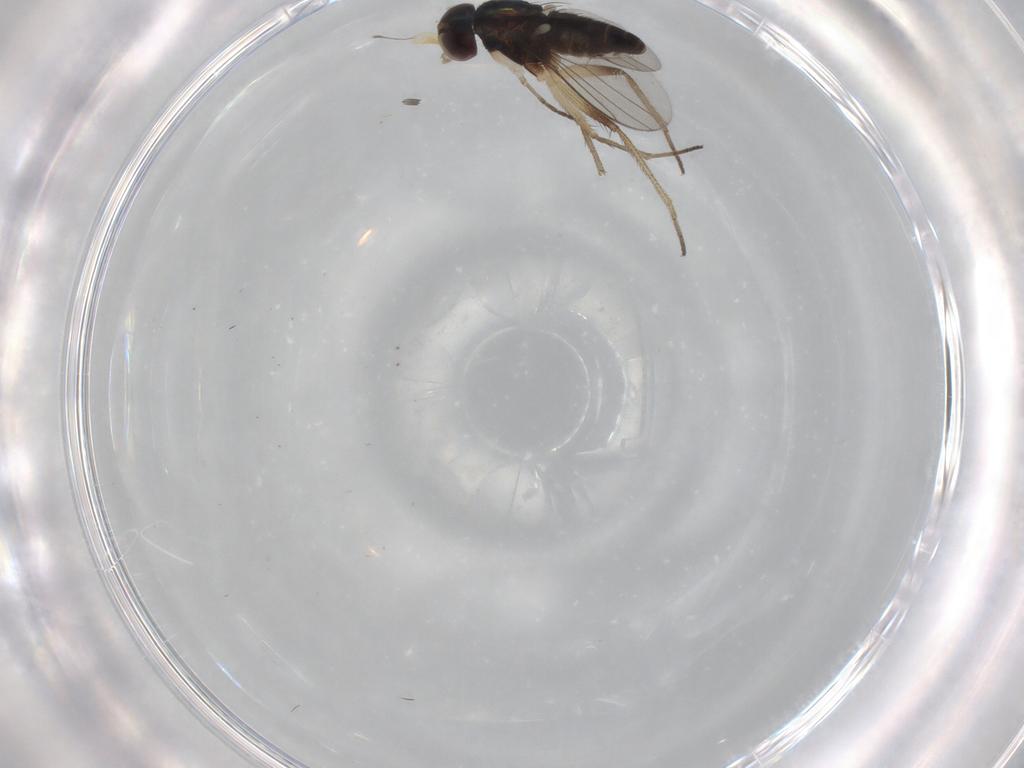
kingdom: Animalia
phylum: Arthropoda
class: Insecta
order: Diptera
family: Dolichopodidae
